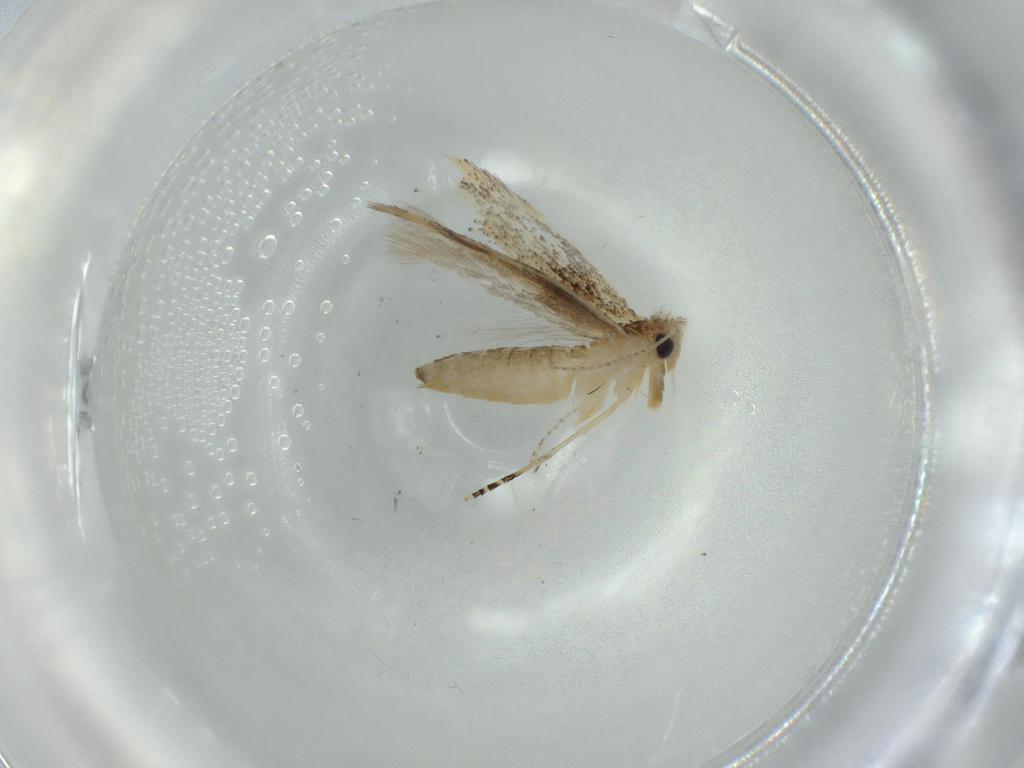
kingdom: Animalia
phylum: Arthropoda
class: Insecta
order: Lepidoptera
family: Bucculatricidae
